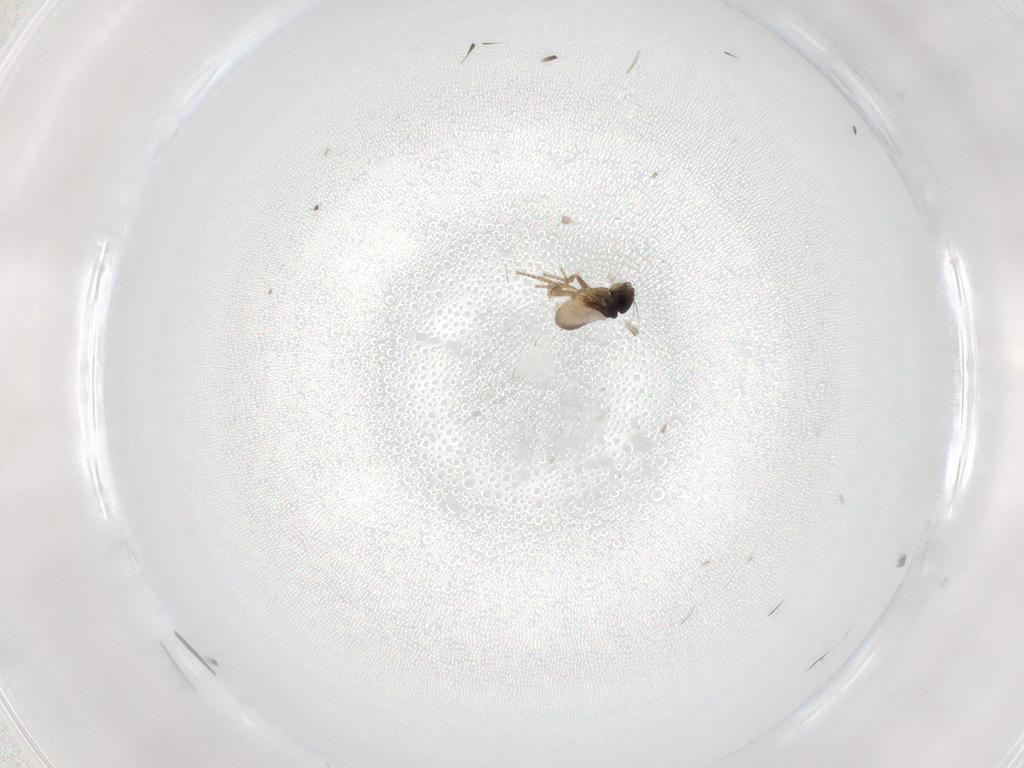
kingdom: Animalia
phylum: Arthropoda
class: Insecta
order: Diptera
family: Phoridae
